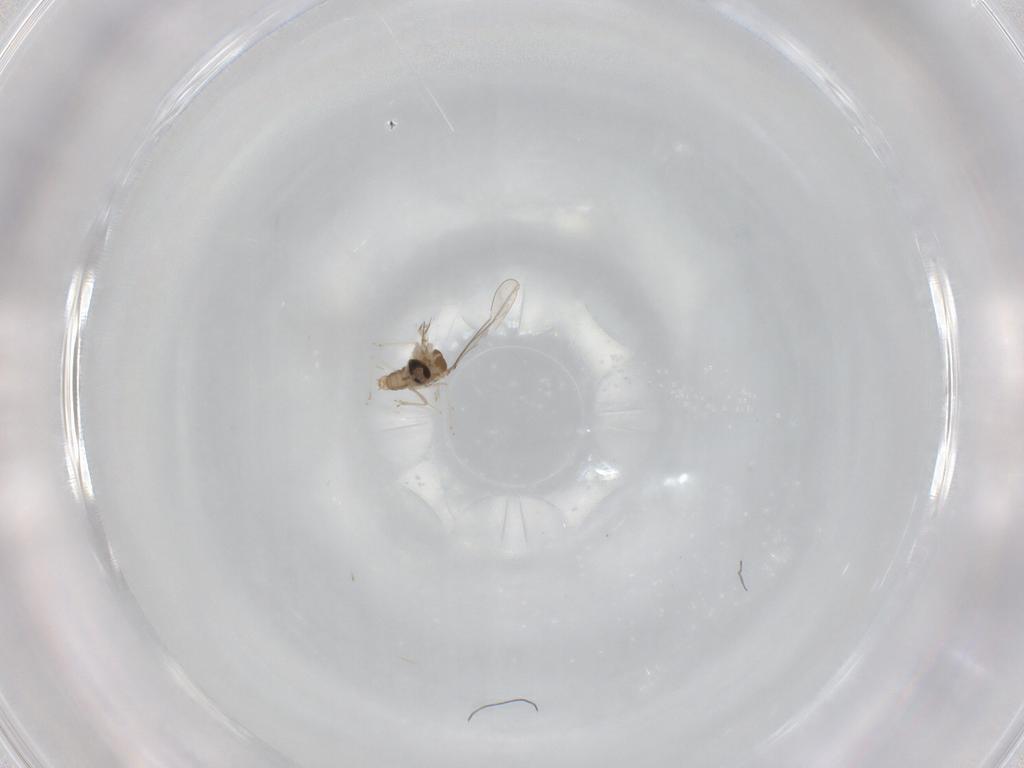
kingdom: Animalia
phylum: Arthropoda
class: Insecta
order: Diptera
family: Cecidomyiidae
